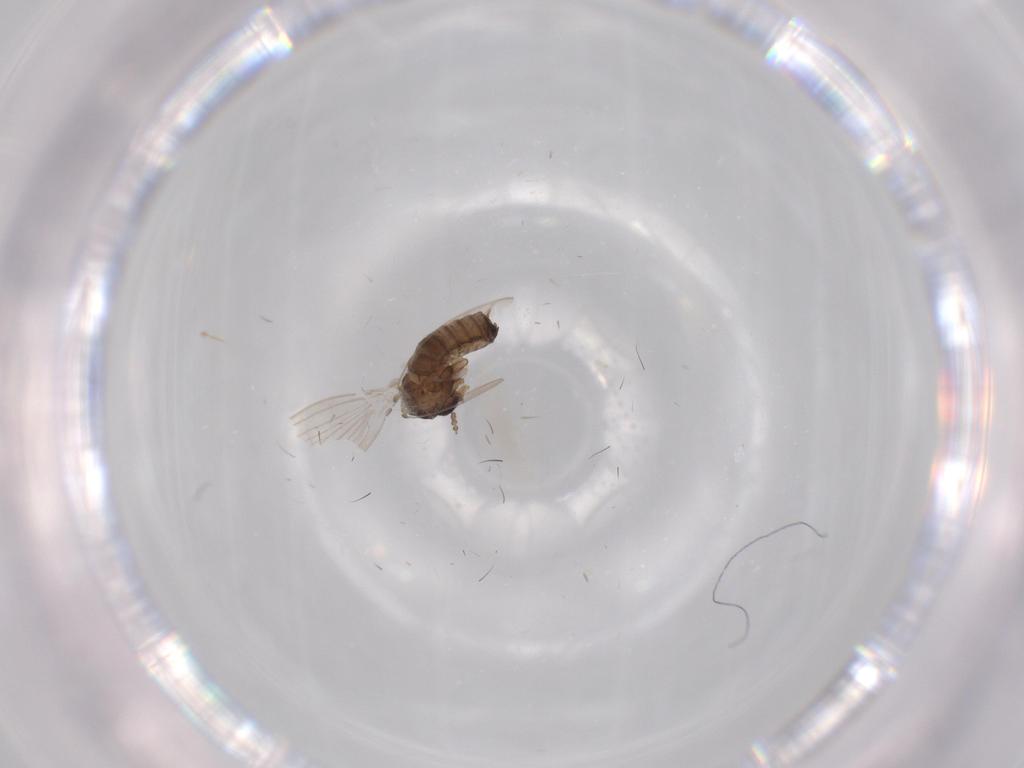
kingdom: Animalia
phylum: Arthropoda
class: Insecta
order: Diptera
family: Psychodidae
